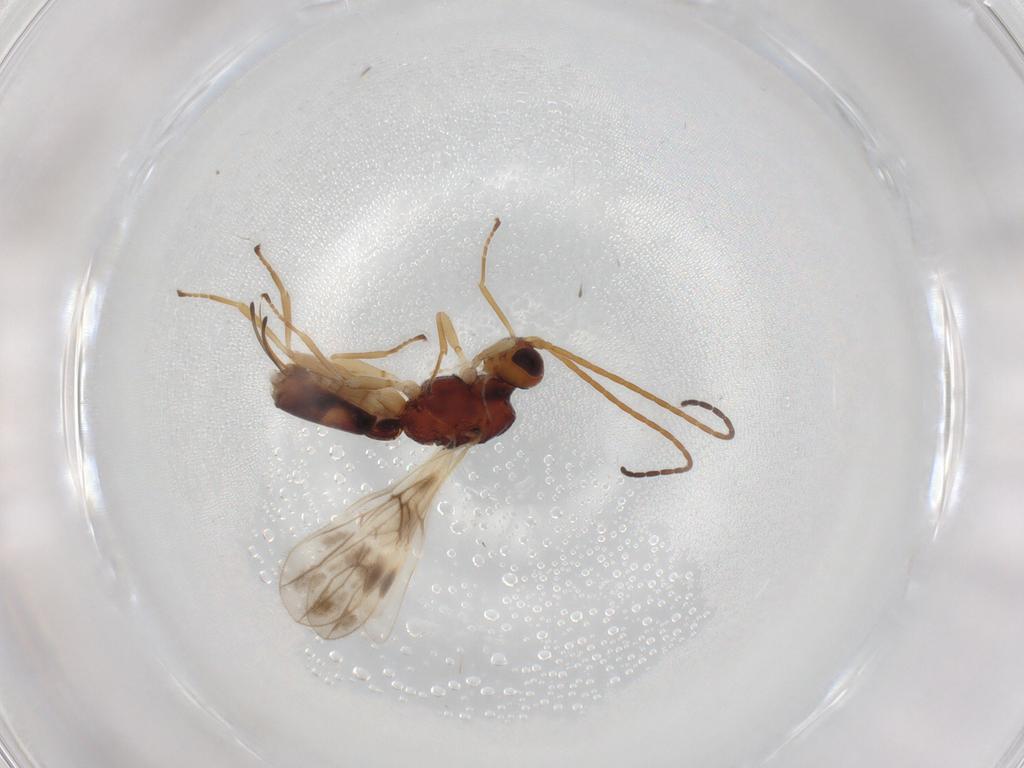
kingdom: Animalia
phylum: Arthropoda
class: Insecta
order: Hymenoptera
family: Braconidae
